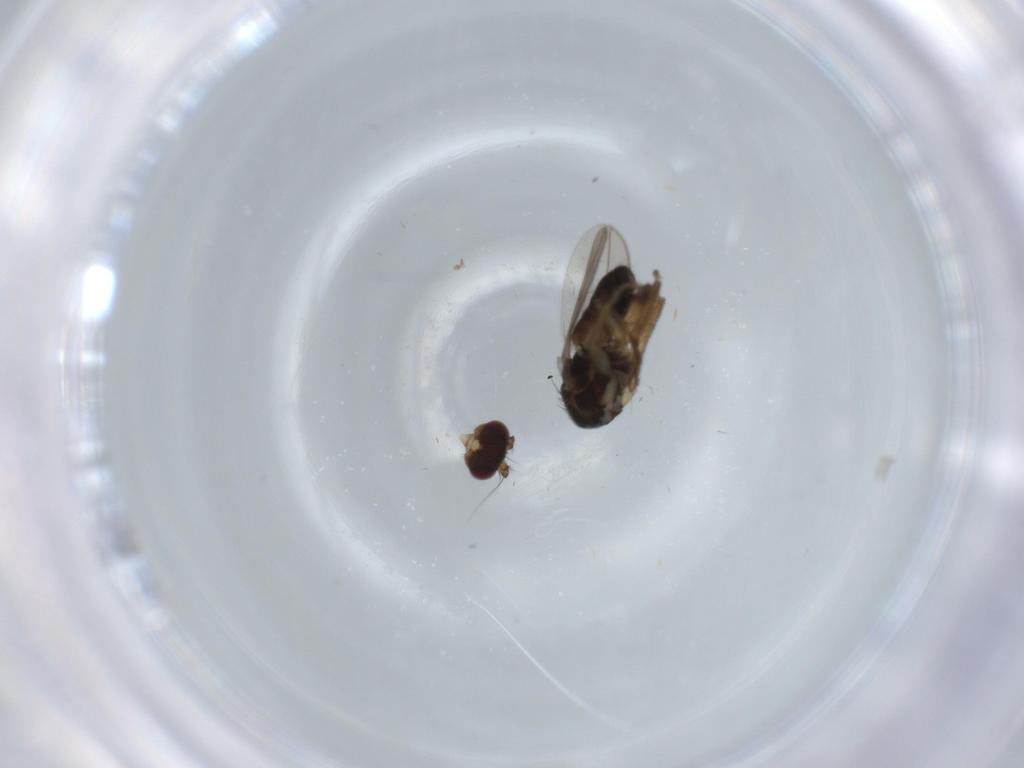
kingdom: Animalia
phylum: Arthropoda
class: Insecta
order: Diptera
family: Sphaeroceridae
